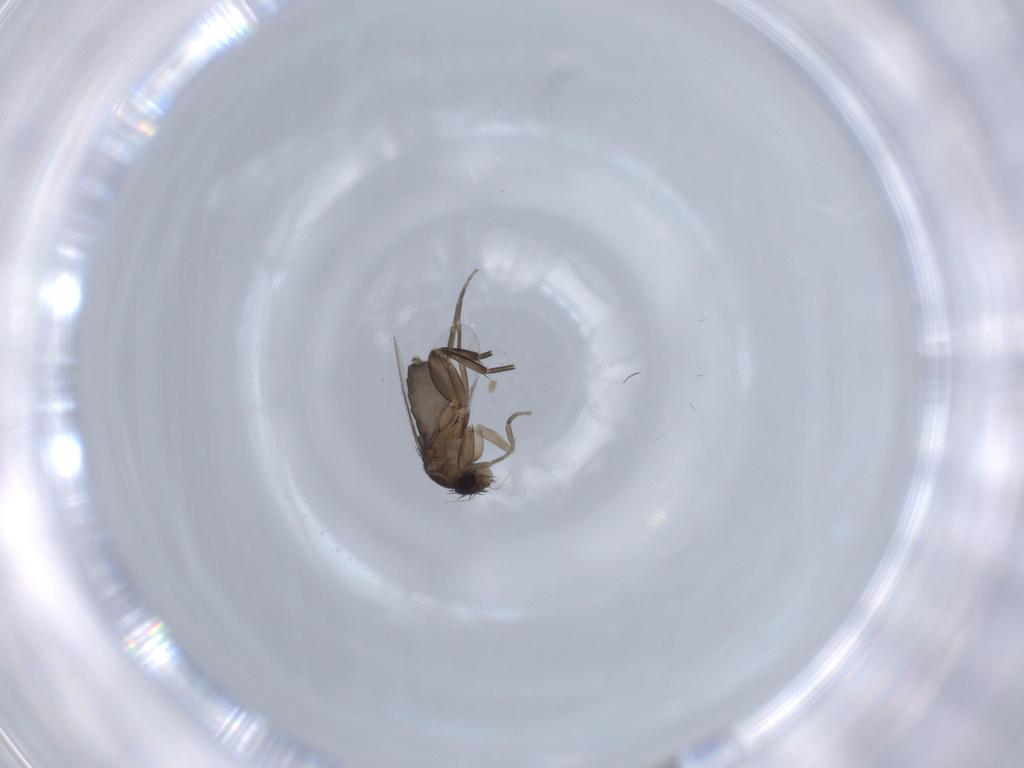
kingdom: Animalia
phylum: Arthropoda
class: Insecta
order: Diptera
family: Phoridae
